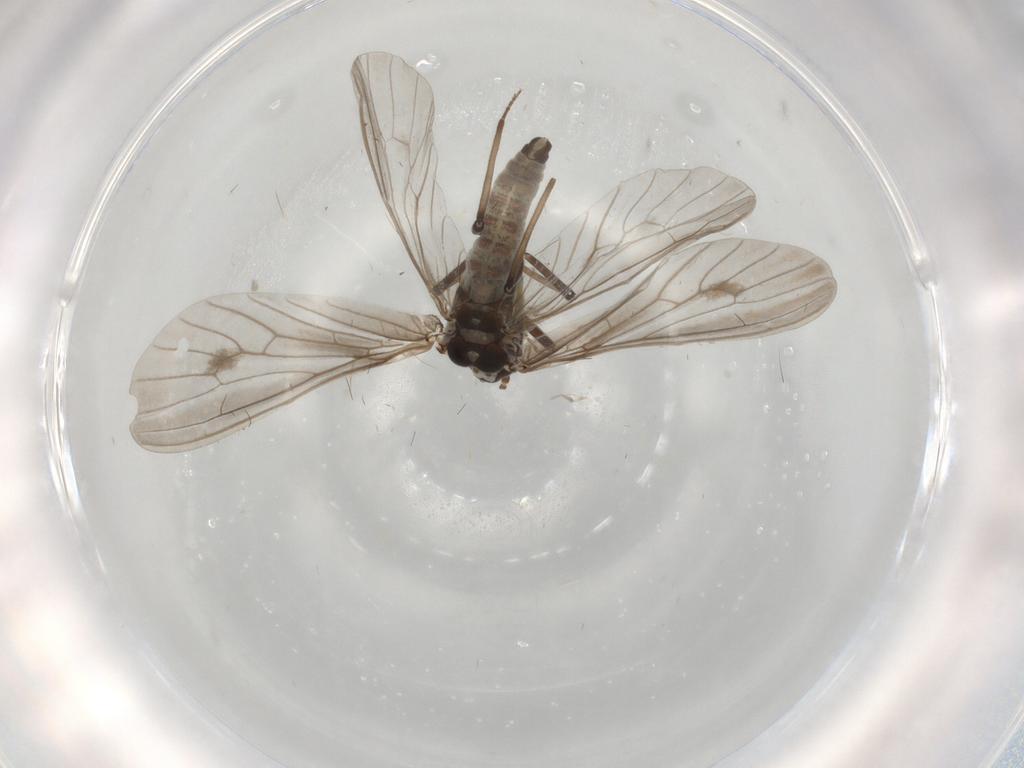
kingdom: Animalia
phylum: Arthropoda
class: Insecta
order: Neuroptera
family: Coniopterygidae
